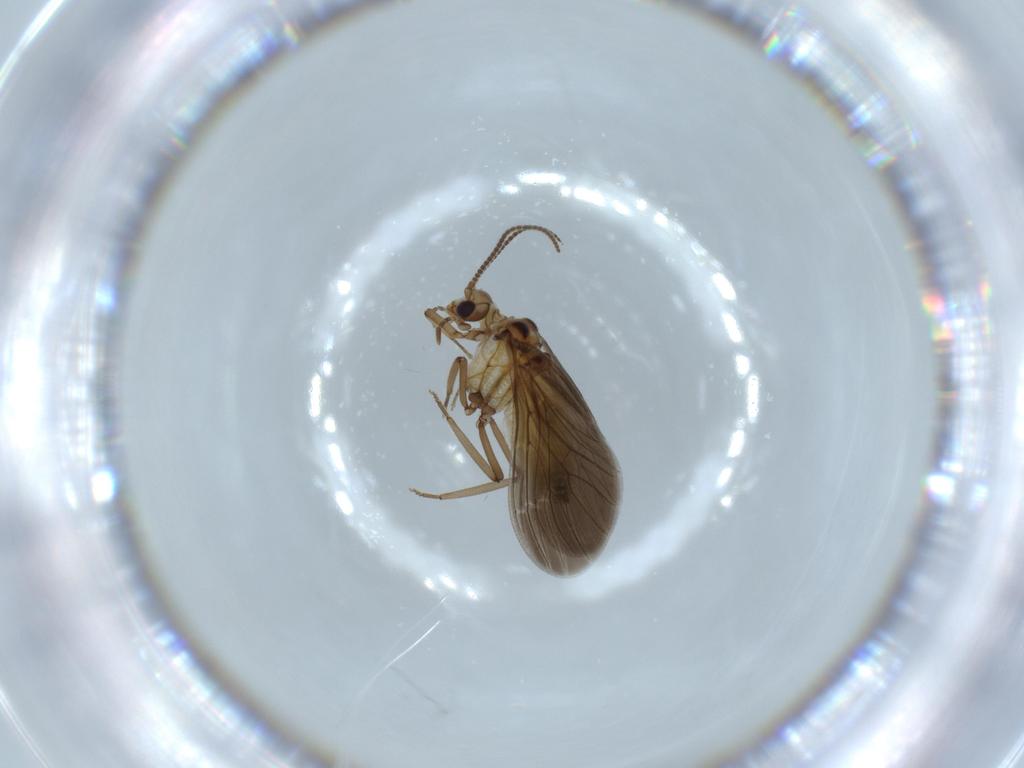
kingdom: Animalia
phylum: Arthropoda
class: Insecta
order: Neuroptera
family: Coniopterygidae
